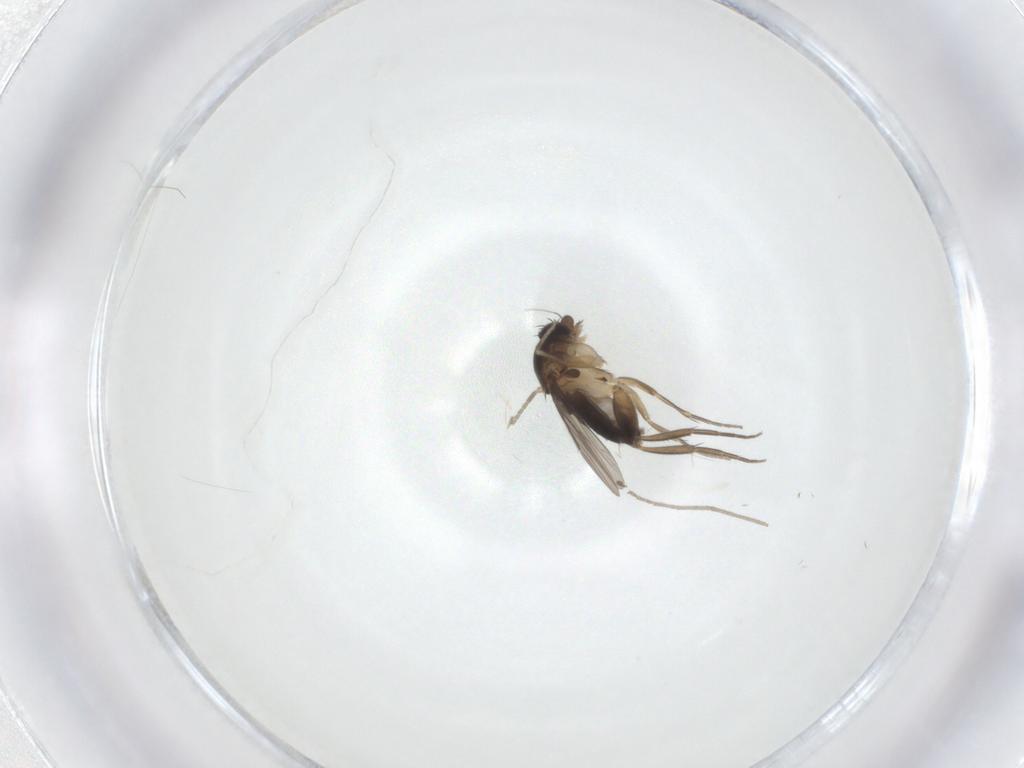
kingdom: Animalia
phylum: Arthropoda
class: Insecta
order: Diptera
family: Phoridae
